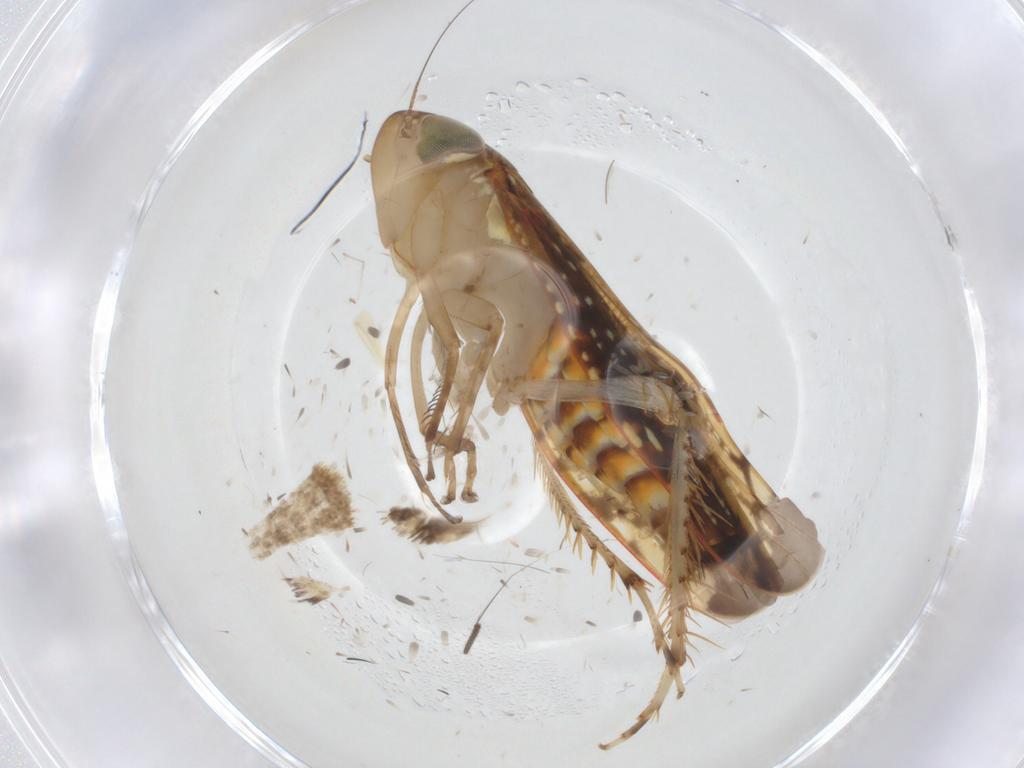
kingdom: Animalia
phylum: Arthropoda
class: Insecta
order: Hemiptera
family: Cicadellidae
